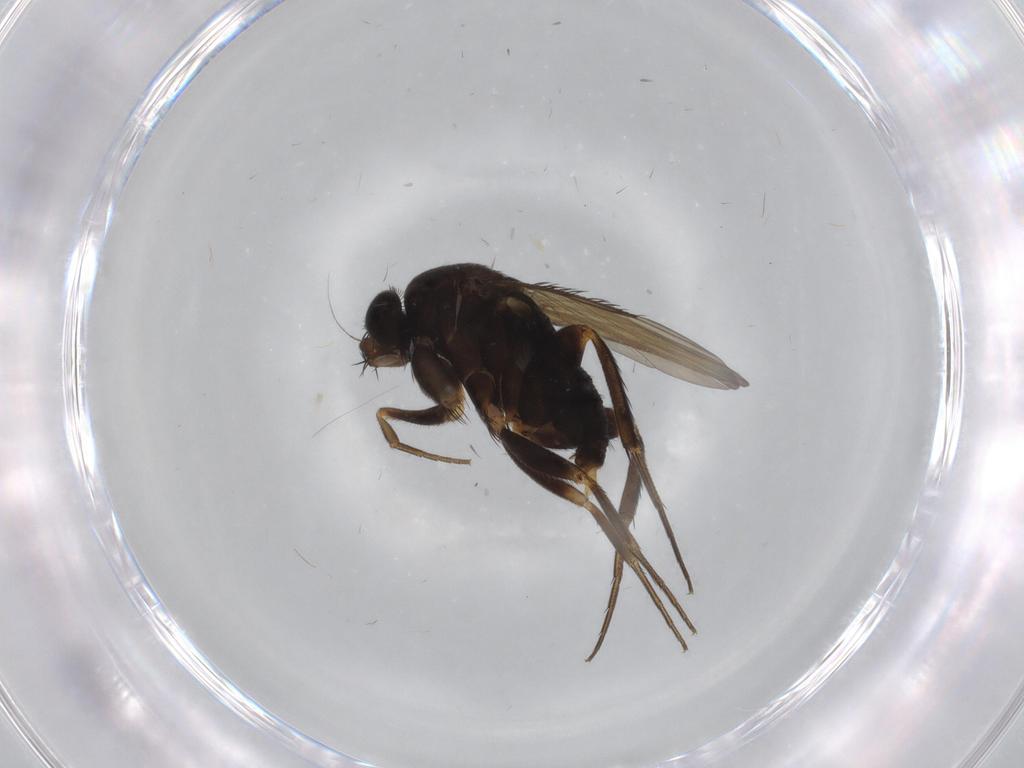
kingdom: Animalia
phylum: Arthropoda
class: Insecta
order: Diptera
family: Phoridae
